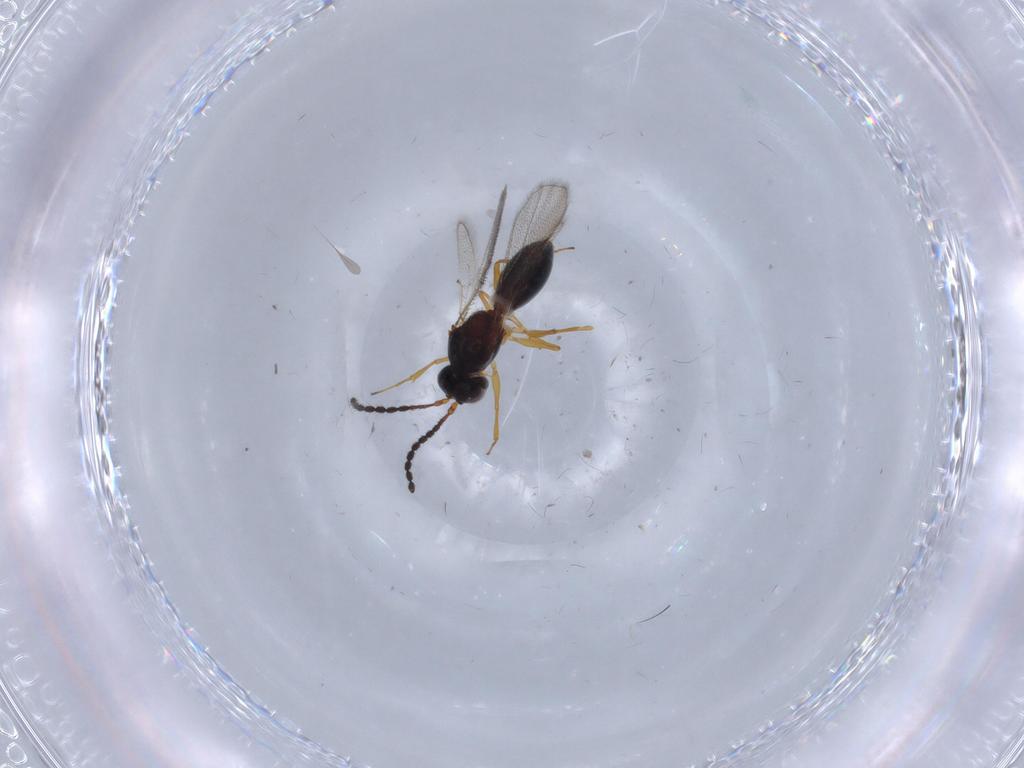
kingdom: Animalia
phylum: Arthropoda
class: Insecta
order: Hymenoptera
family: Figitidae
